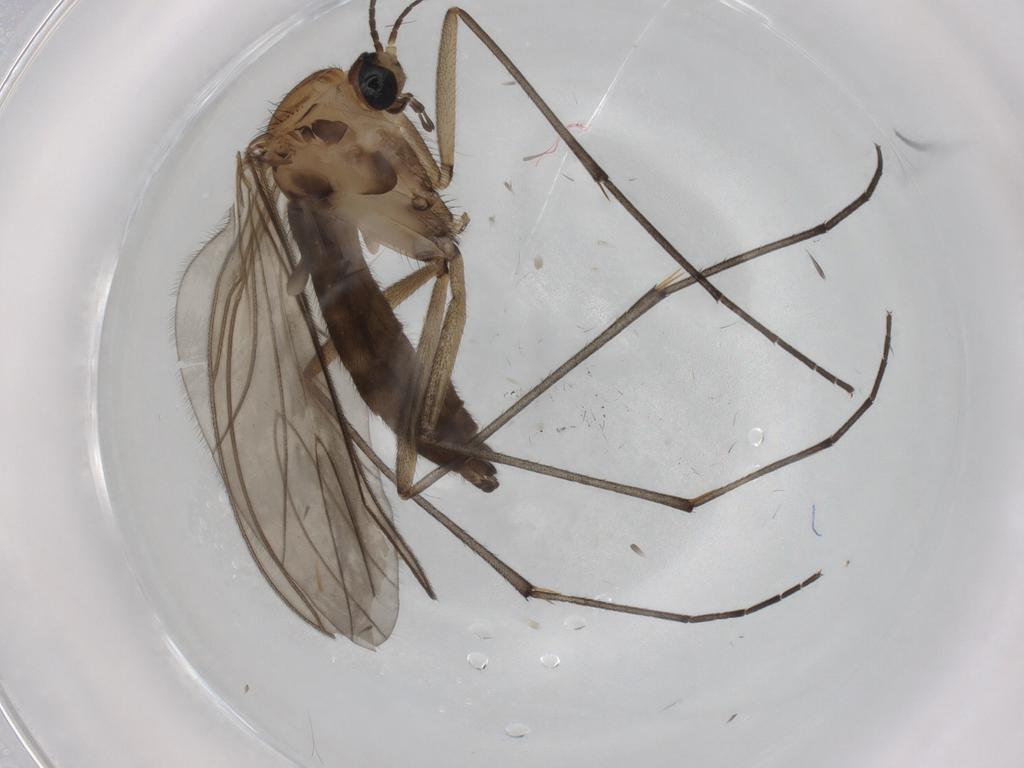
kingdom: Animalia
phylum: Arthropoda
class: Insecta
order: Diptera
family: Sciaridae
